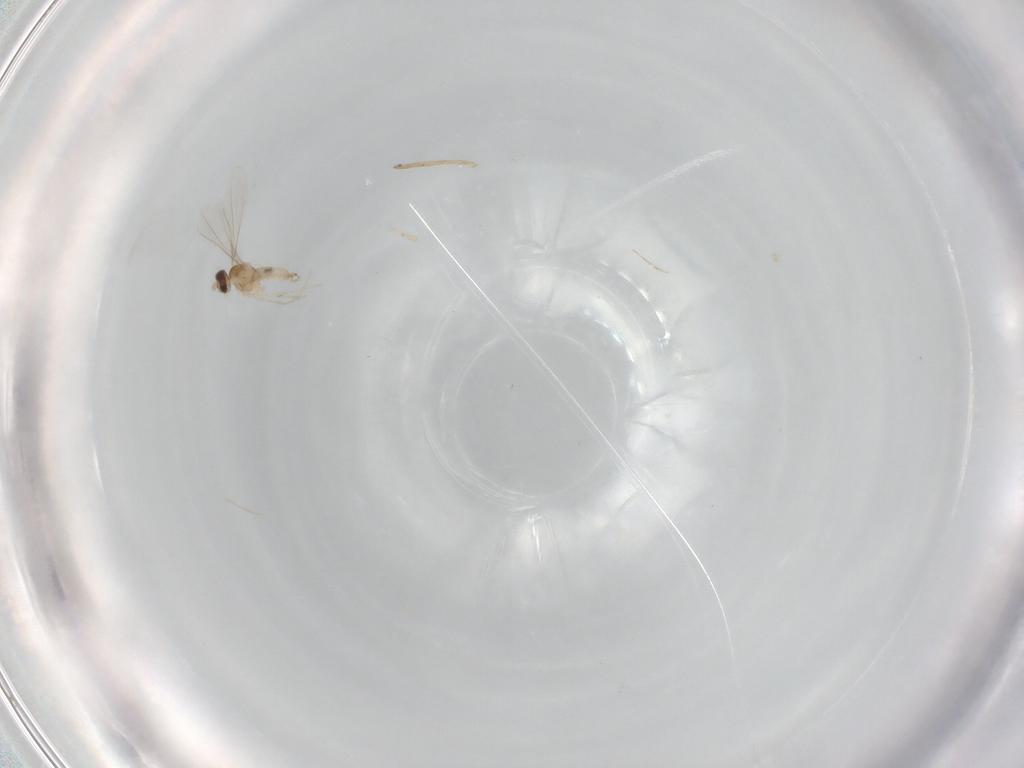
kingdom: Animalia
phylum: Arthropoda
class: Insecta
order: Diptera
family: Cecidomyiidae
